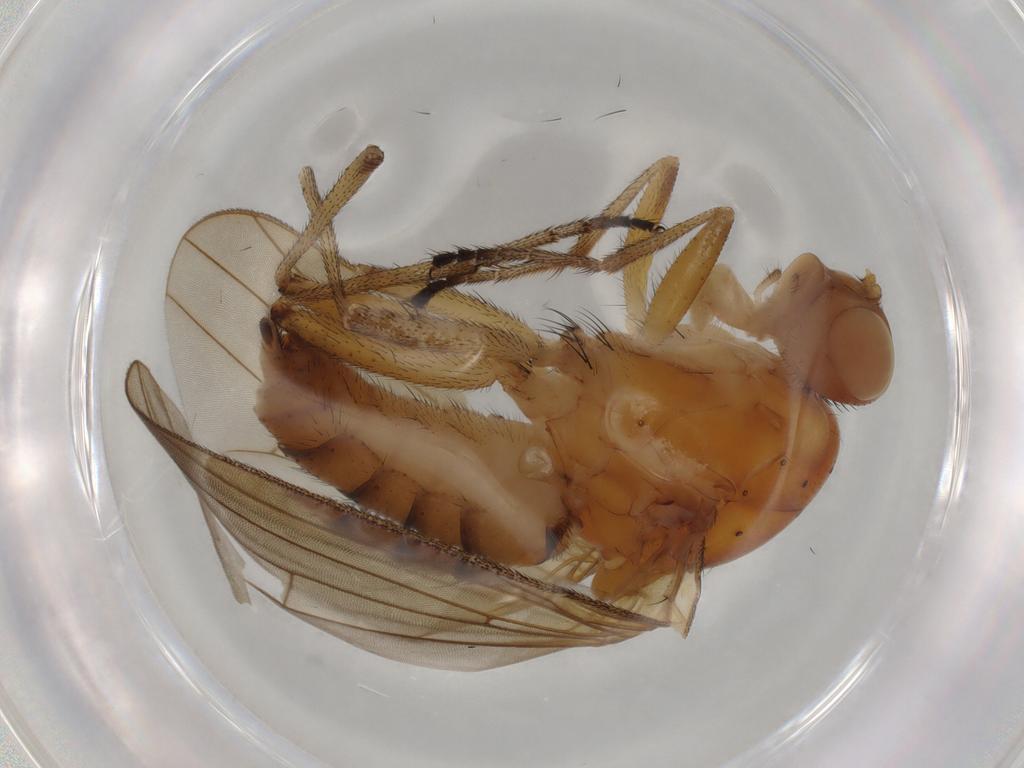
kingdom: Animalia
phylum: Arthropoda
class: Insecta
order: Diptera
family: Heleomyzidae
